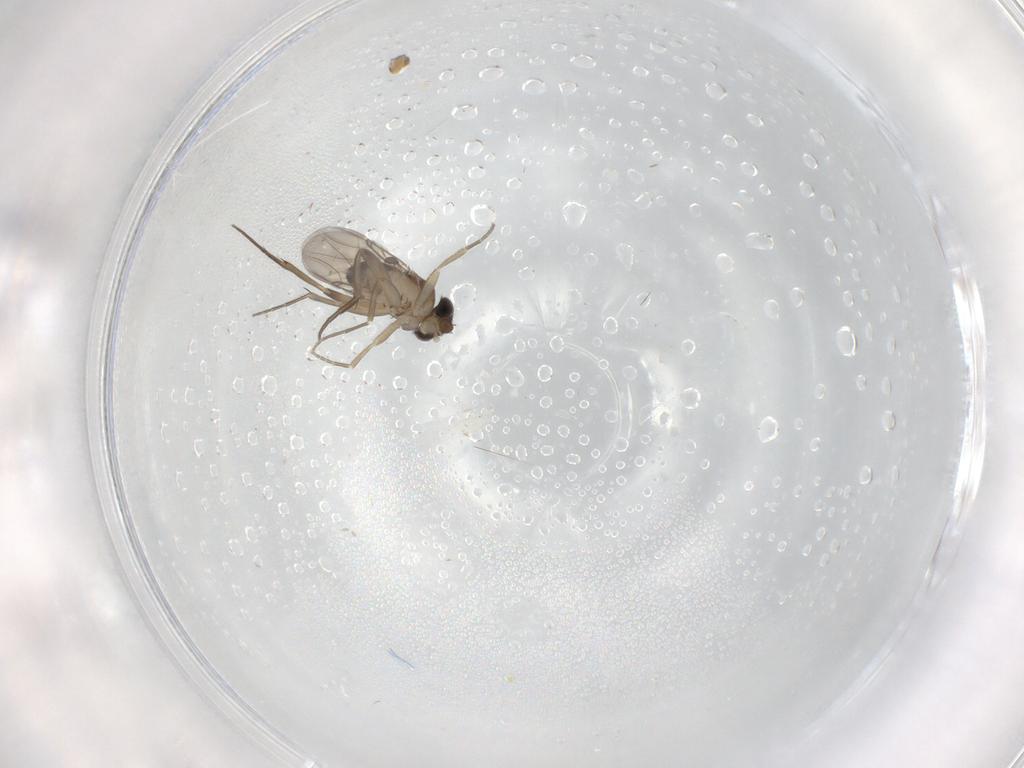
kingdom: Animalia
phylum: Arthropoda
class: Insecta
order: Diptera
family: Phoridae
